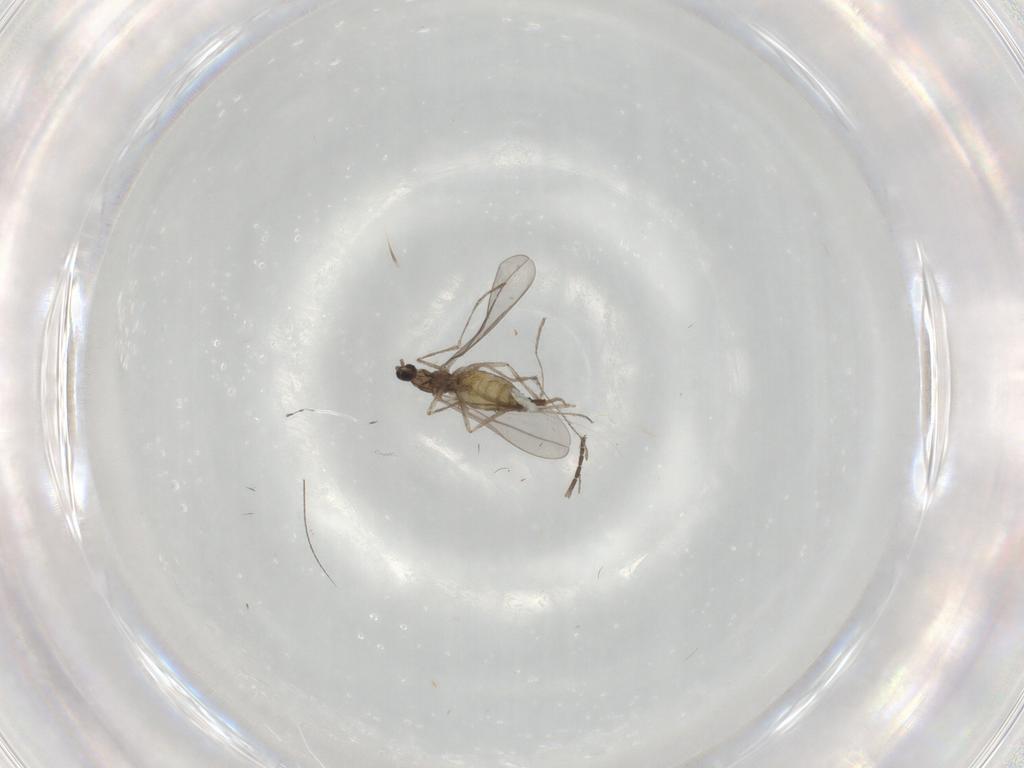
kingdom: Animalia
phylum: Arthropoda
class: Insecta
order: Diptera
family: Cecidomyiidae
